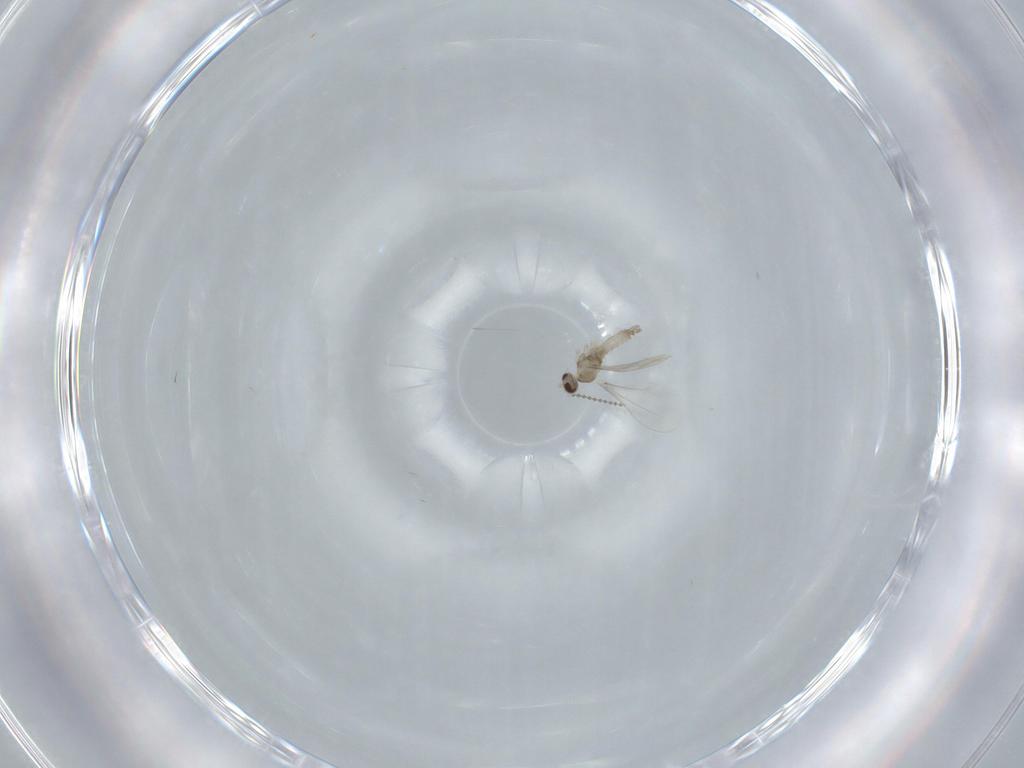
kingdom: Animalia
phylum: Arthropoda
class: Insecta
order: Diptera
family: Cecidomyiidae
